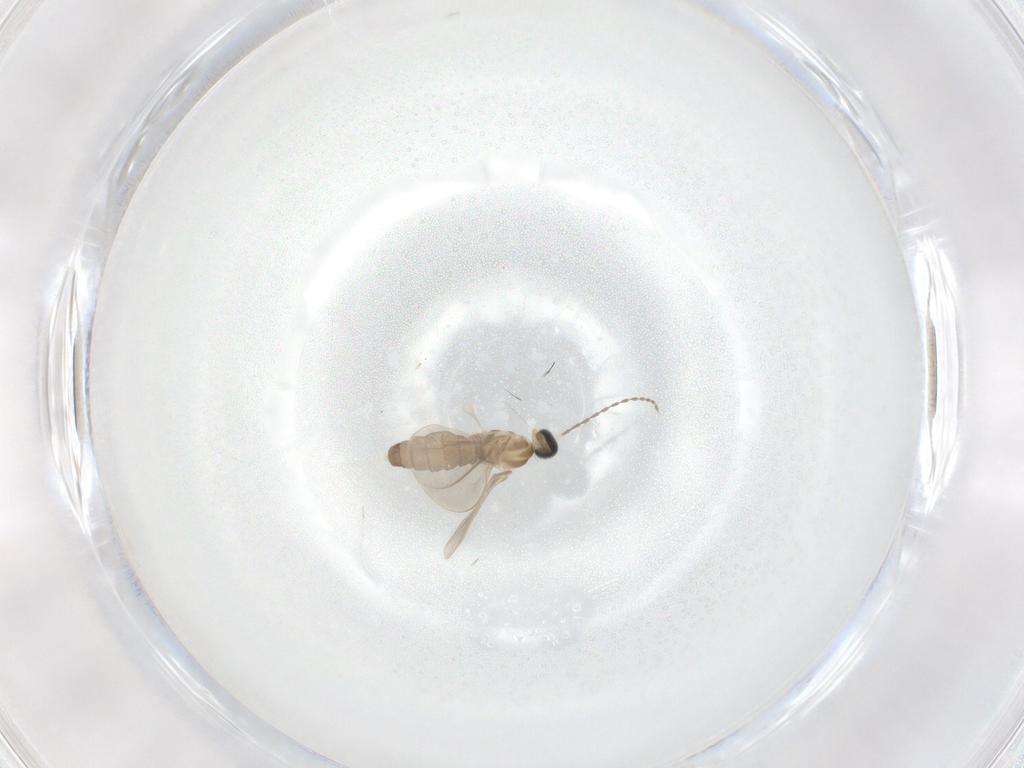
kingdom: Animalia
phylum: Arthropoda
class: Insecta
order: Diptera
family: Cecidomyiidae
